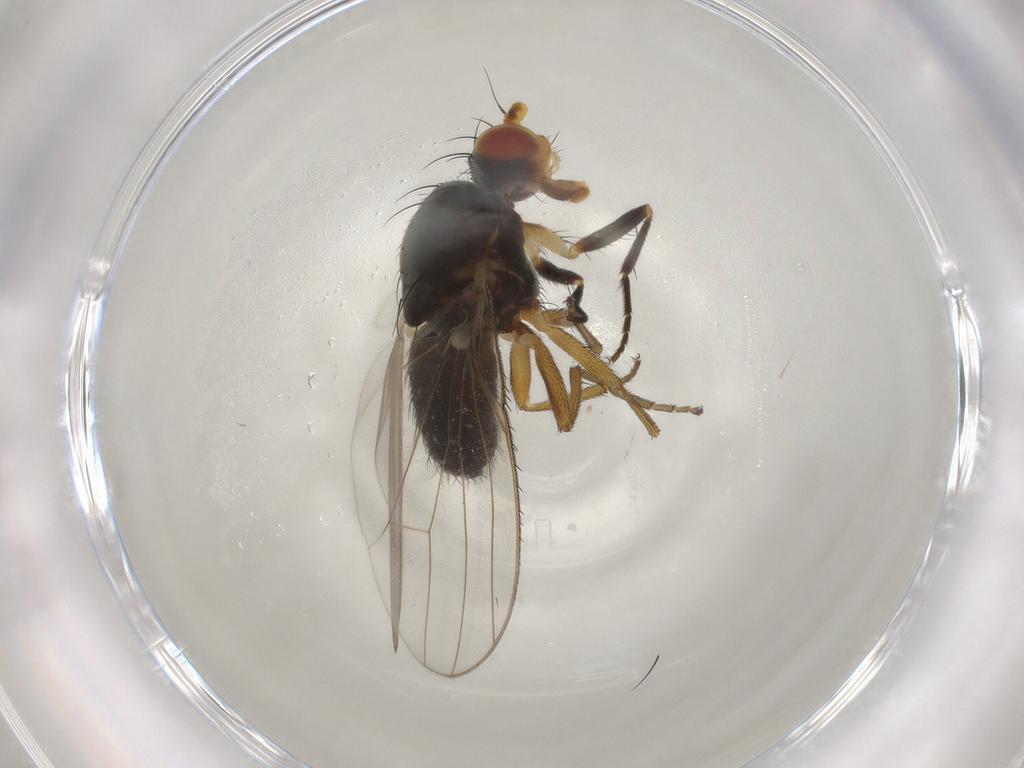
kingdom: Animalia
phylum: Arthropoda
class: Insecta
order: Diptera
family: Sciaridae
